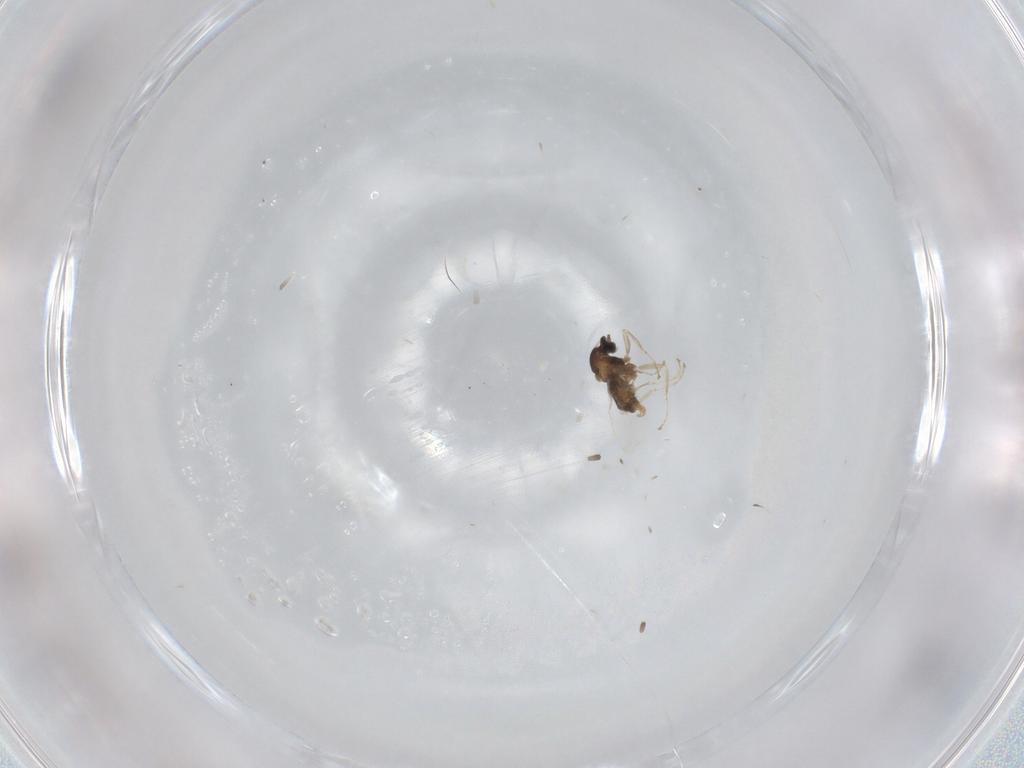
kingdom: Animalia
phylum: Arthropoda
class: Insecta
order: Diptera
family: Cecidomyiidae
